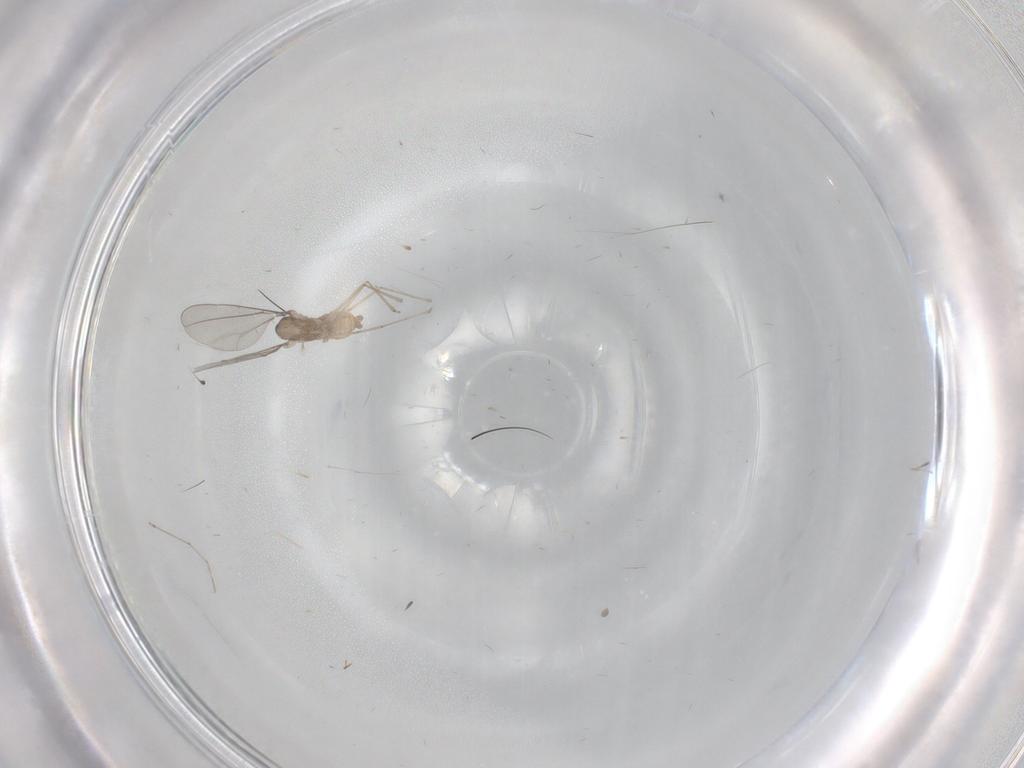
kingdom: Animalia
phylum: Arthropoda
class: Insecta
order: Diptera
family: Cecidomyiidae
